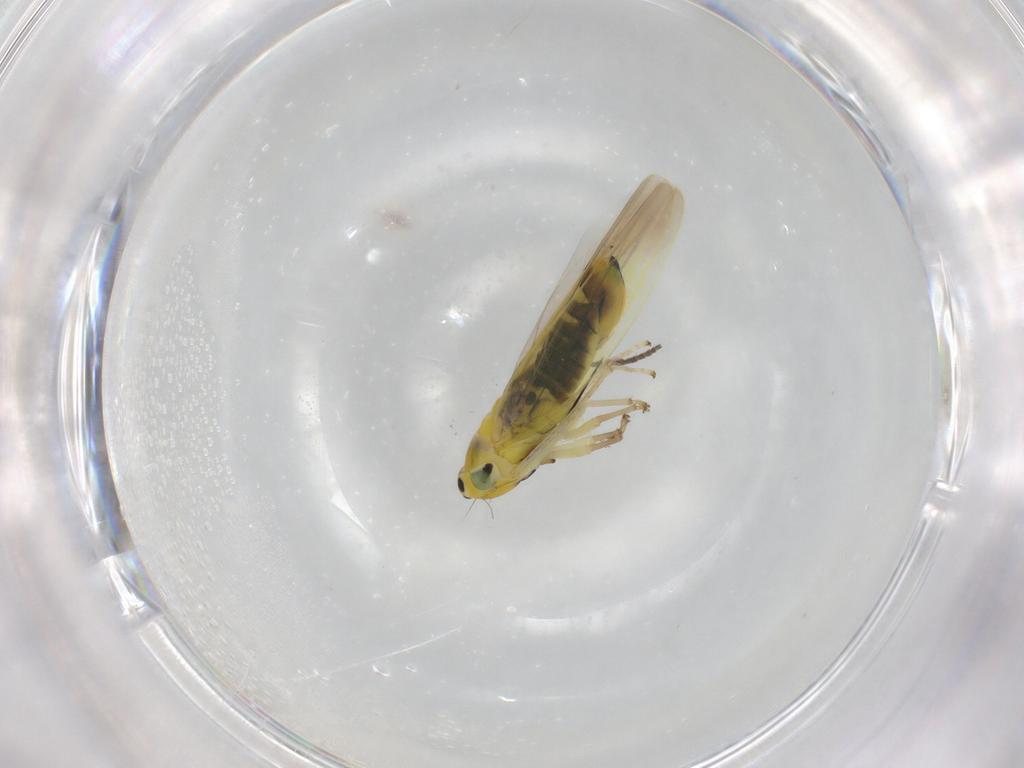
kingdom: Animalia
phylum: Arthropoda
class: Insecta
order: Hemiptera
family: Cicadellidae
